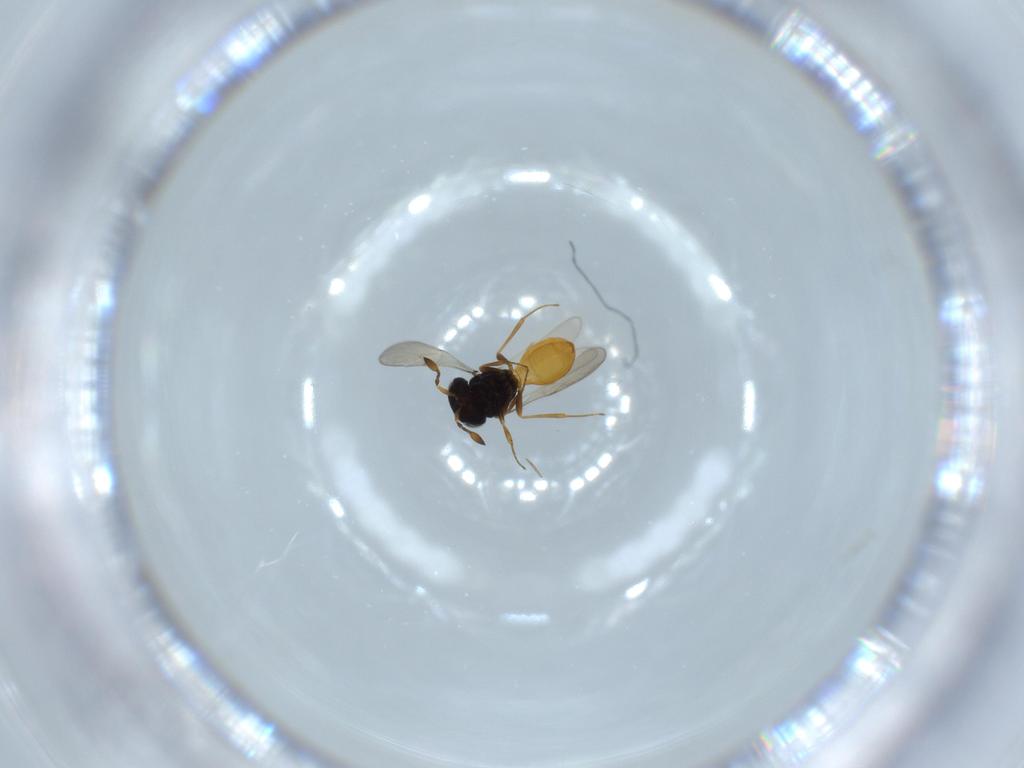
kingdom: Animalia
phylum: Arthropoda
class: Insecta
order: Hymenoptera
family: Scelionidae
